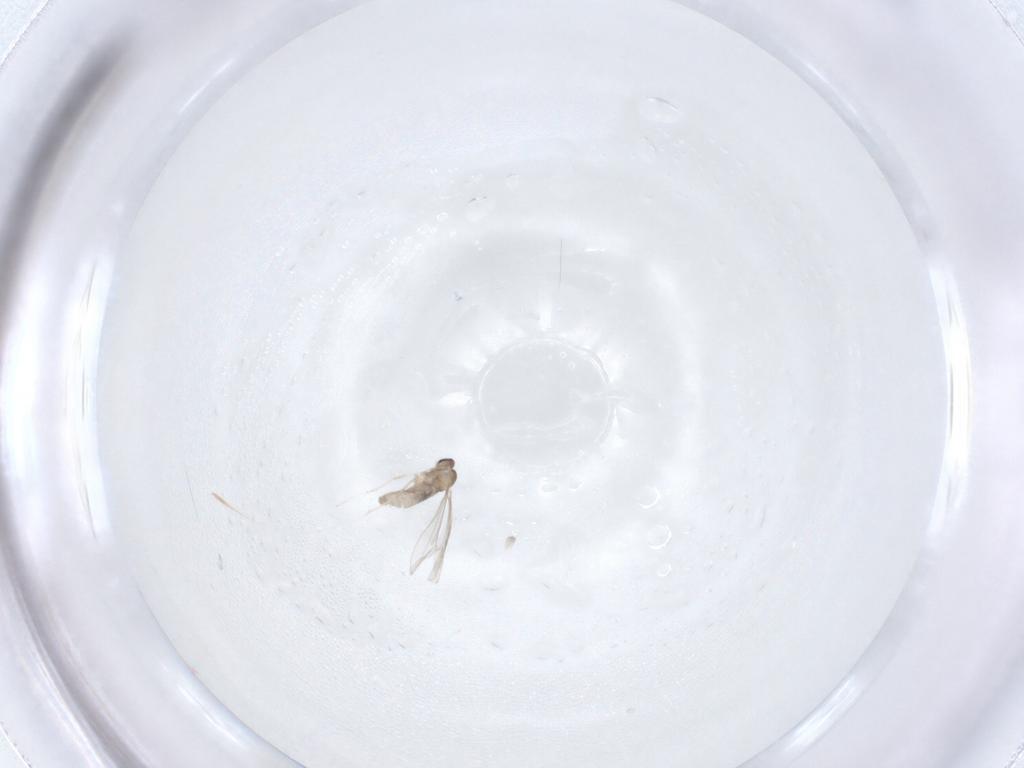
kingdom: Animalia
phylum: Arthropoda
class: Insecta
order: Diptera
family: Cecidomyiidae
